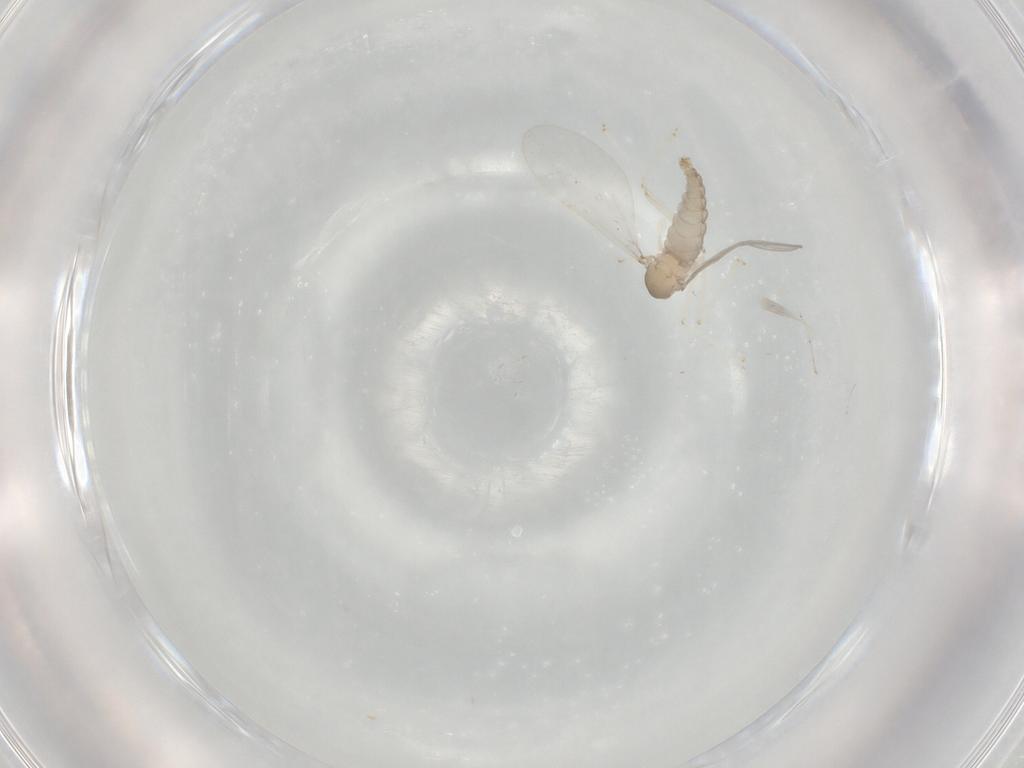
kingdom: Animalia
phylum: Arthropoda
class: Insecta
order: Diptera
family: Cecidomyiidae
